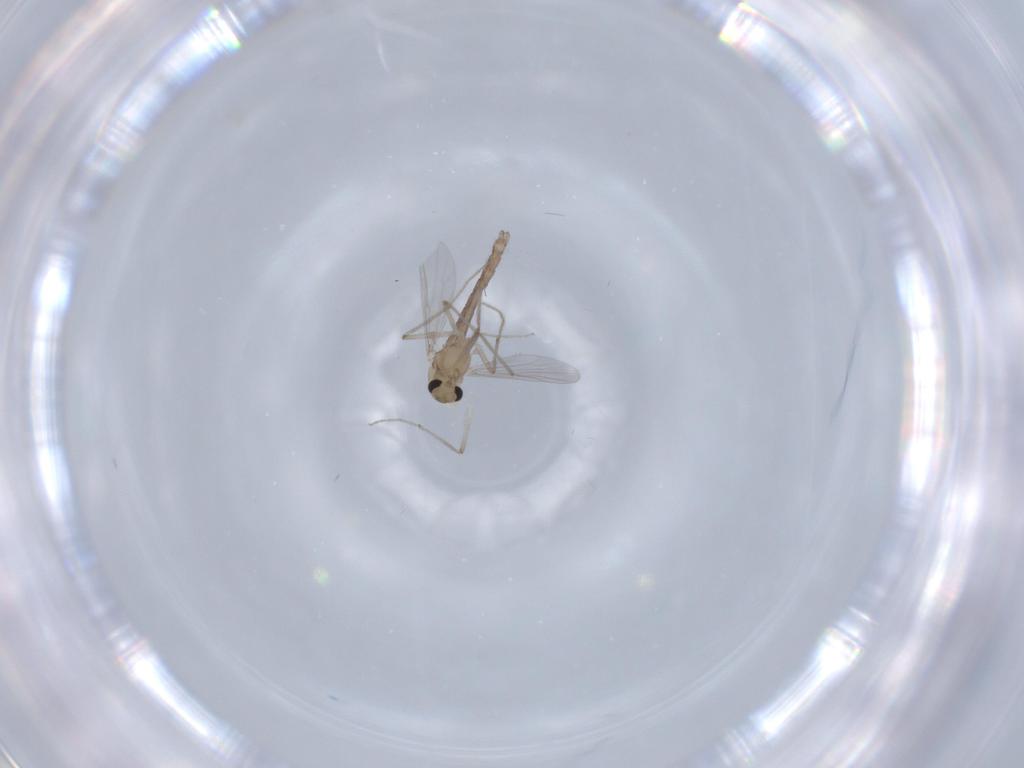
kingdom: Animalia
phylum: Arthropoda
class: Insecta
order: Diptera
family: Chironomidae
